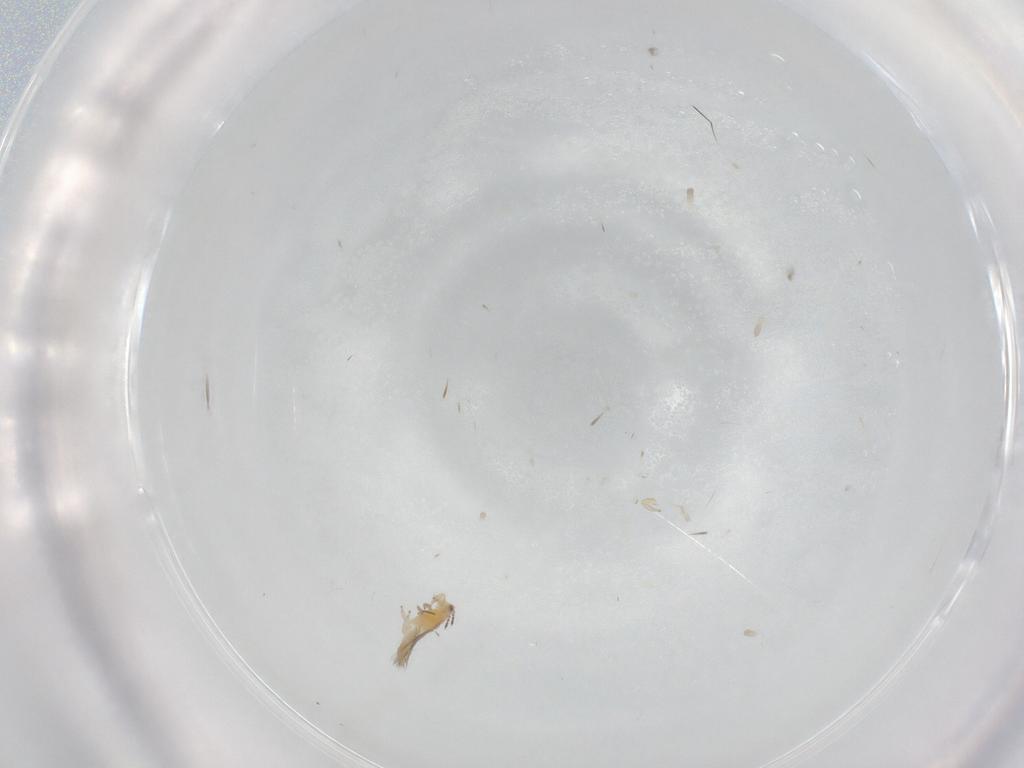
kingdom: Animalia
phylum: Arthropoda
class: Insecta
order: Diptera
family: Glossinidae
